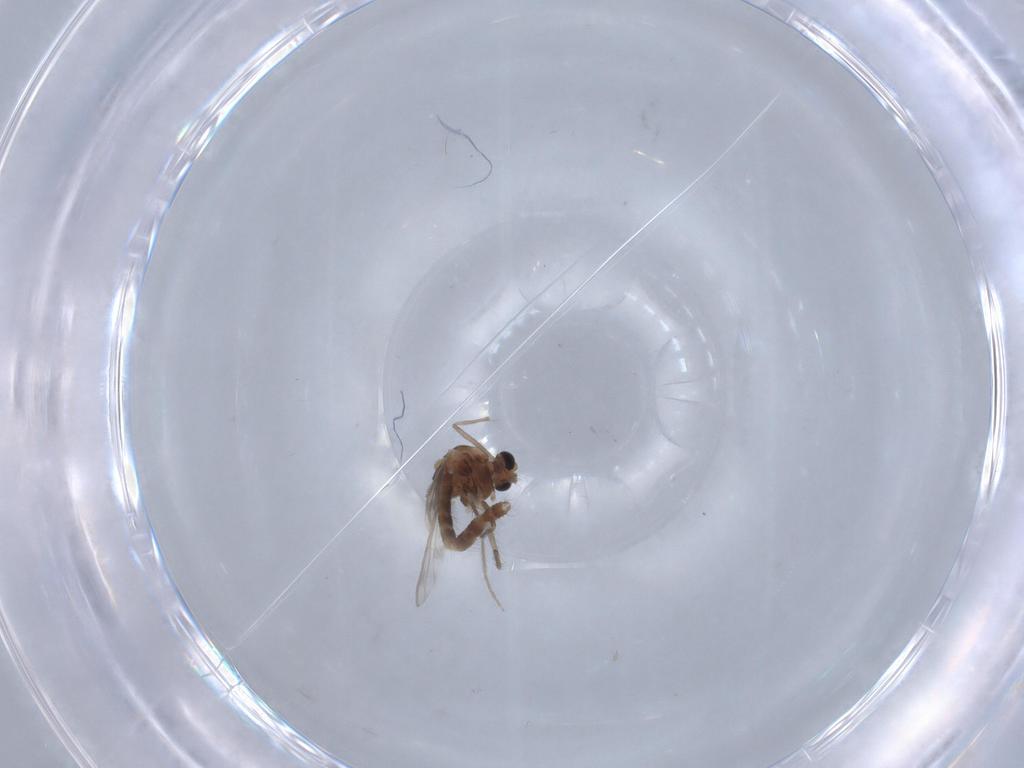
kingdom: Animalia
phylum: Arthropoda
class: Insecta
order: Diptera
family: Chironomidae
